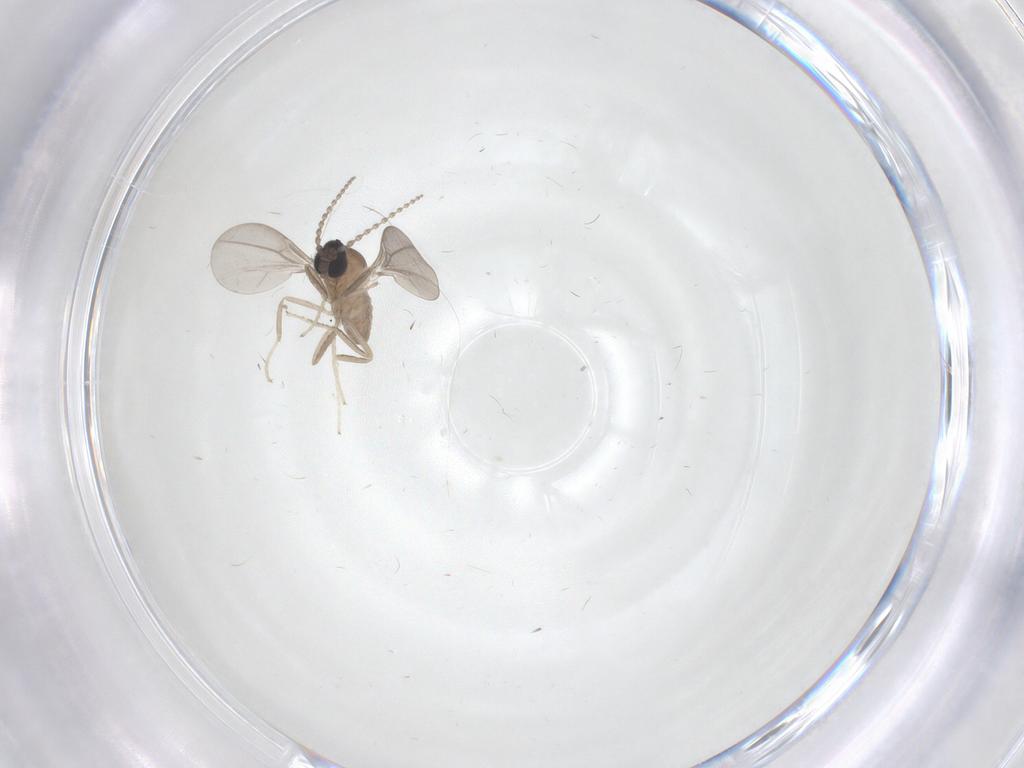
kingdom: Animalia
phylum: Arthropoda
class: Insecta
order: Diptera
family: Cecidomyiidae
